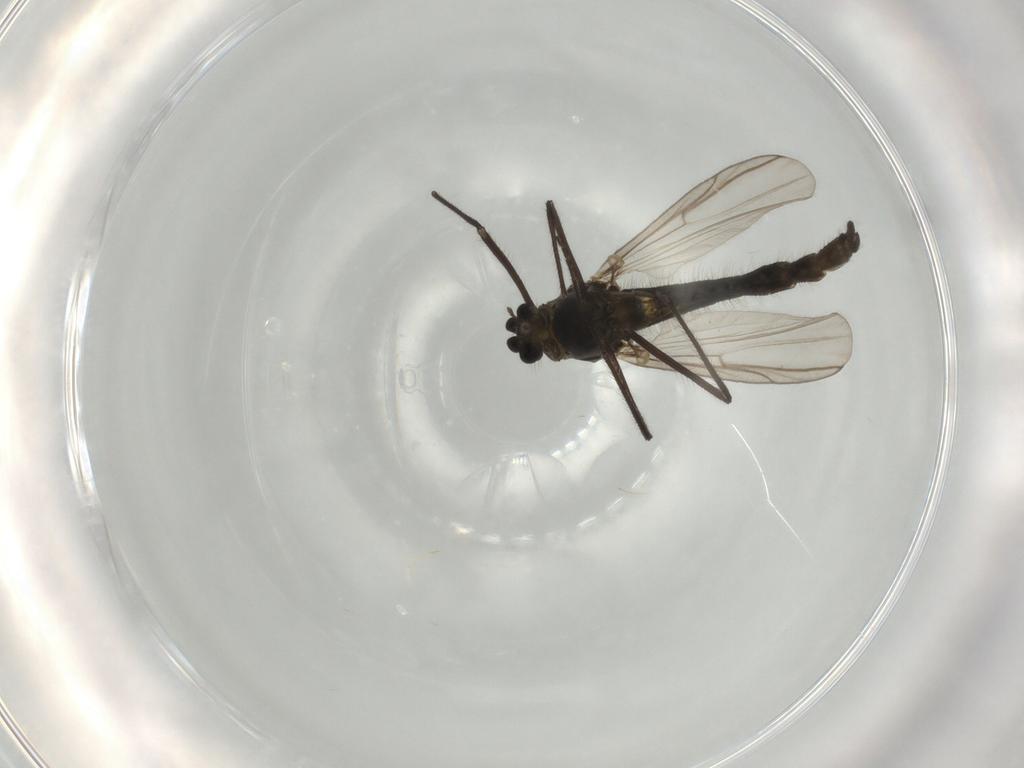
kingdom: Animalia
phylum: Arthropoda
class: Insecta
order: Diptera
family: Chironomidae
